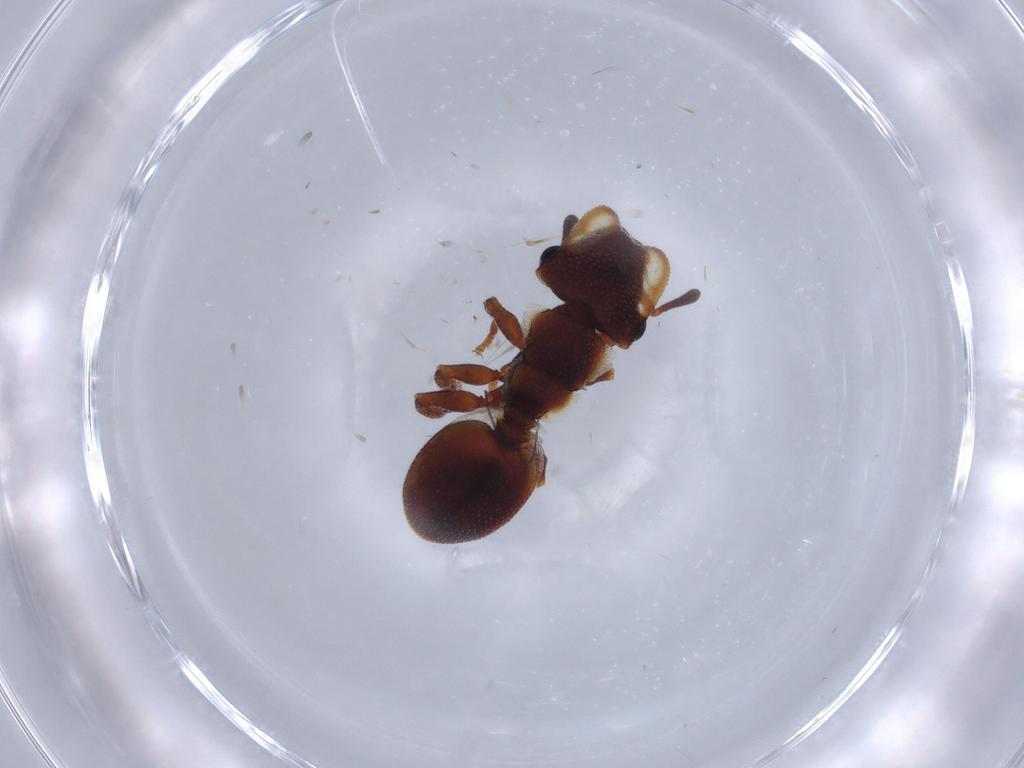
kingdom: Animalia
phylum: Arthropoda
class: Insecta
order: Hymenoptera
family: Formicidae
